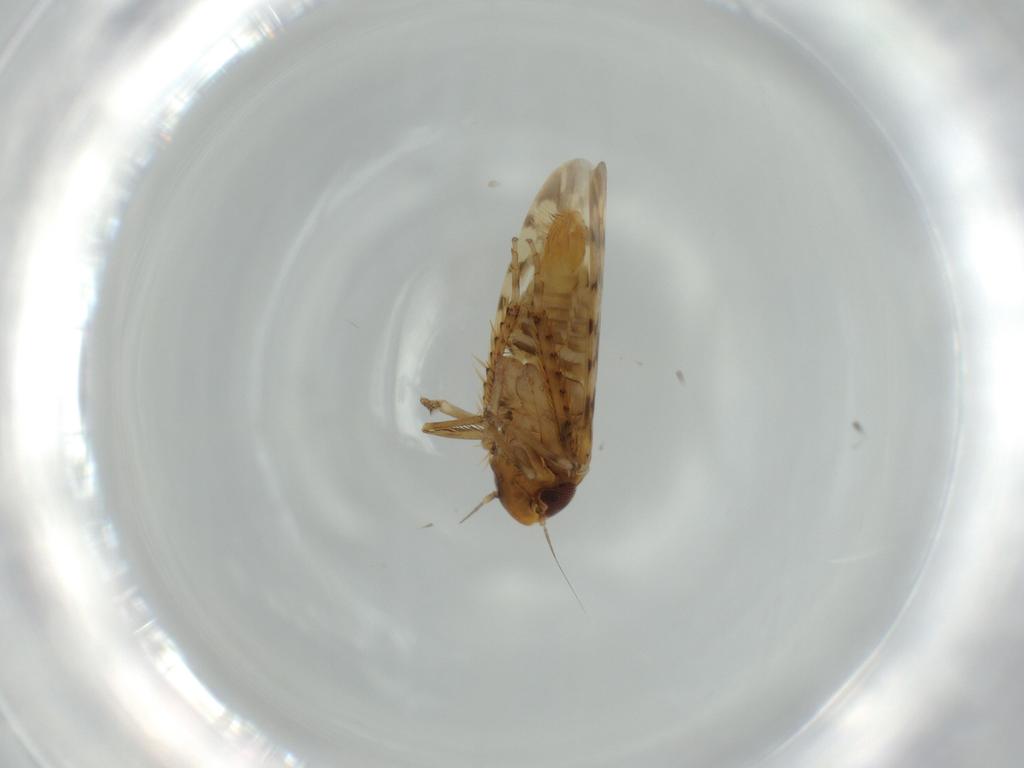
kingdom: Animalia
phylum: Arthropoda
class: Insecta
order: Hemiptera
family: Cicadellidae
